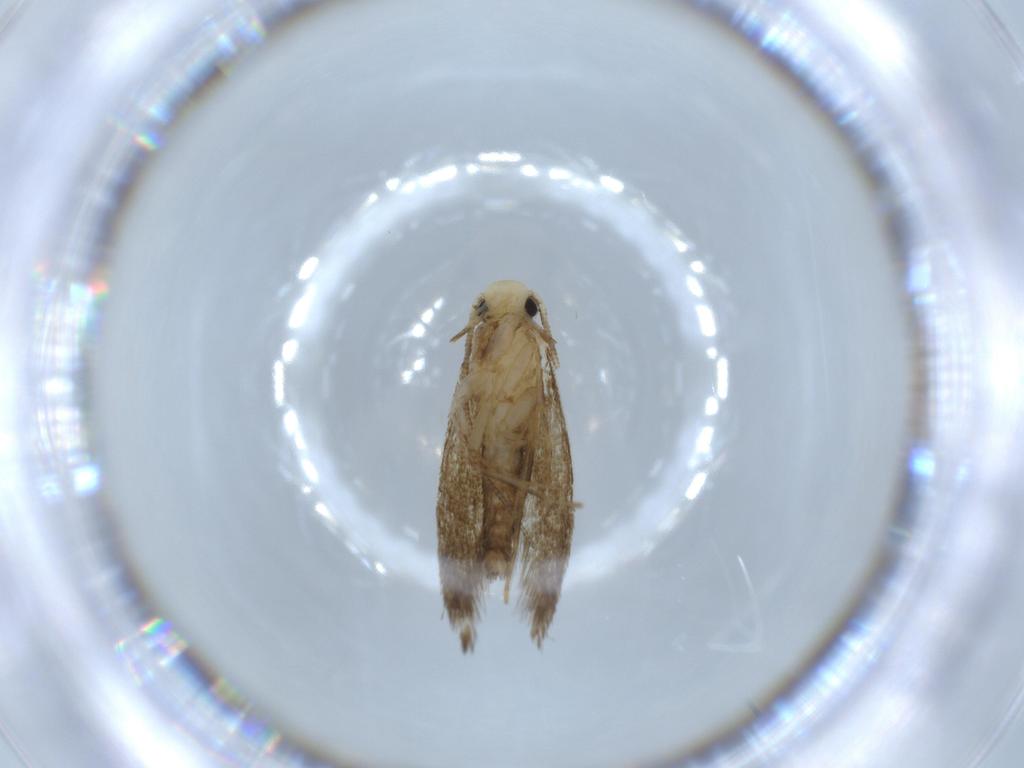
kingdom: Animalia
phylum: Arthropoda
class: Insecta
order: Lepidoptera
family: Tineidae
